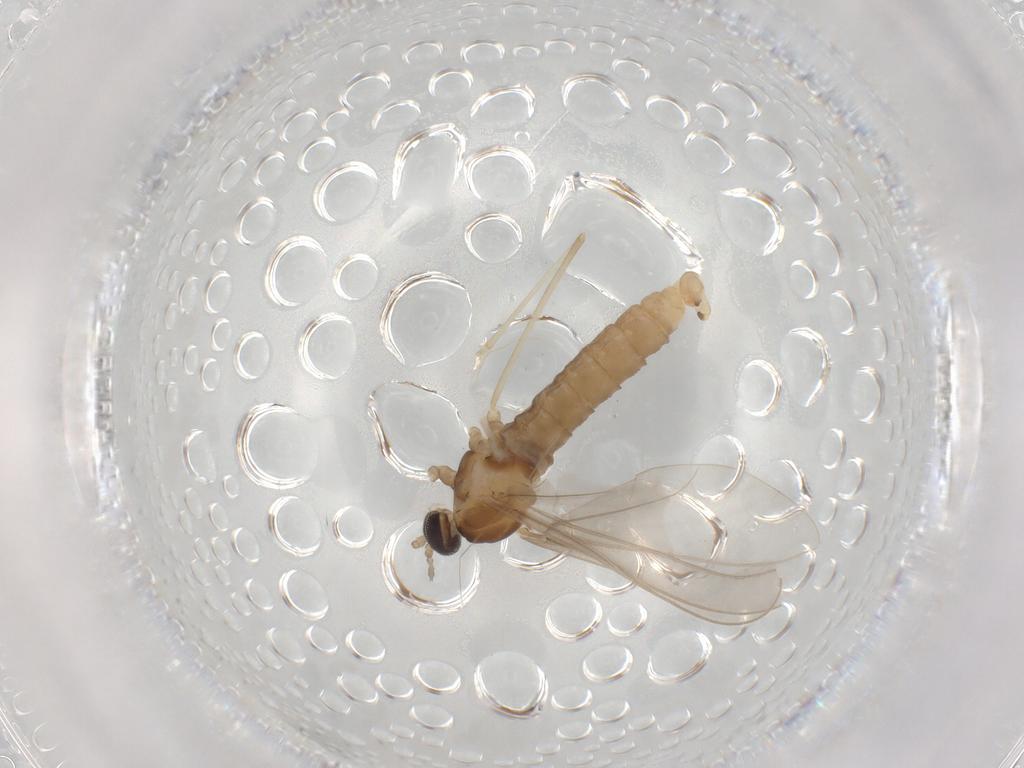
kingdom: Animalia
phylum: Arthropoda
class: Insecta
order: Diptera
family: Cecidomyiidae
